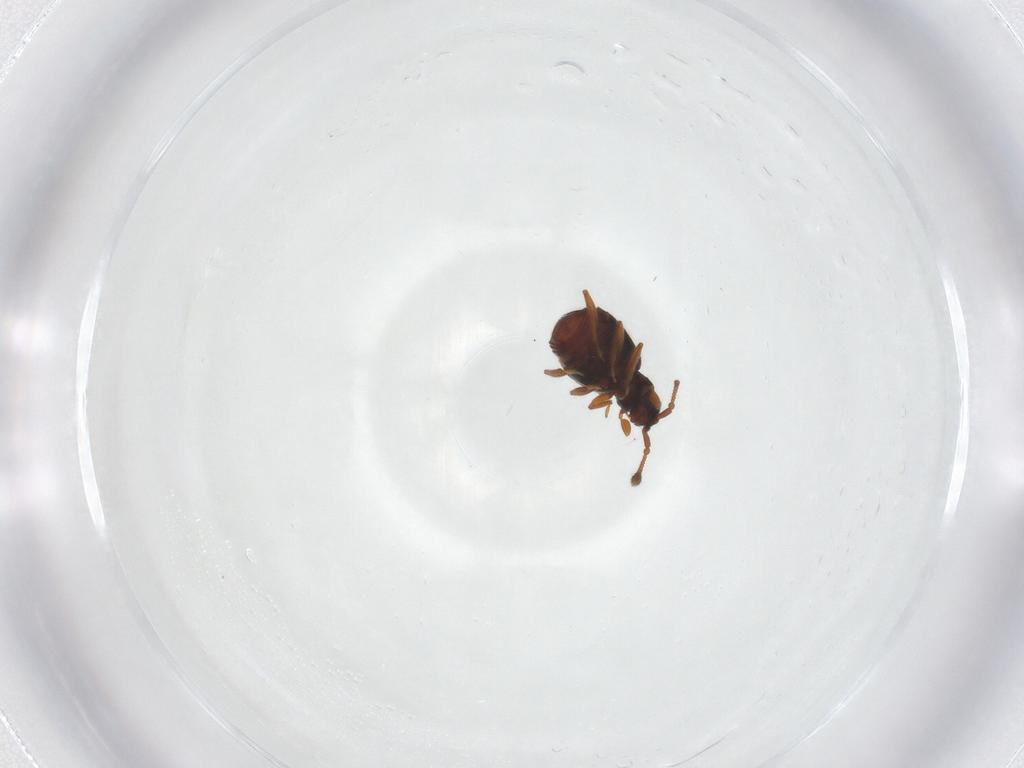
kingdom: Animalia
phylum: Arthropoda
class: Insecta
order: Coleoptera
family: Staphylinidae
